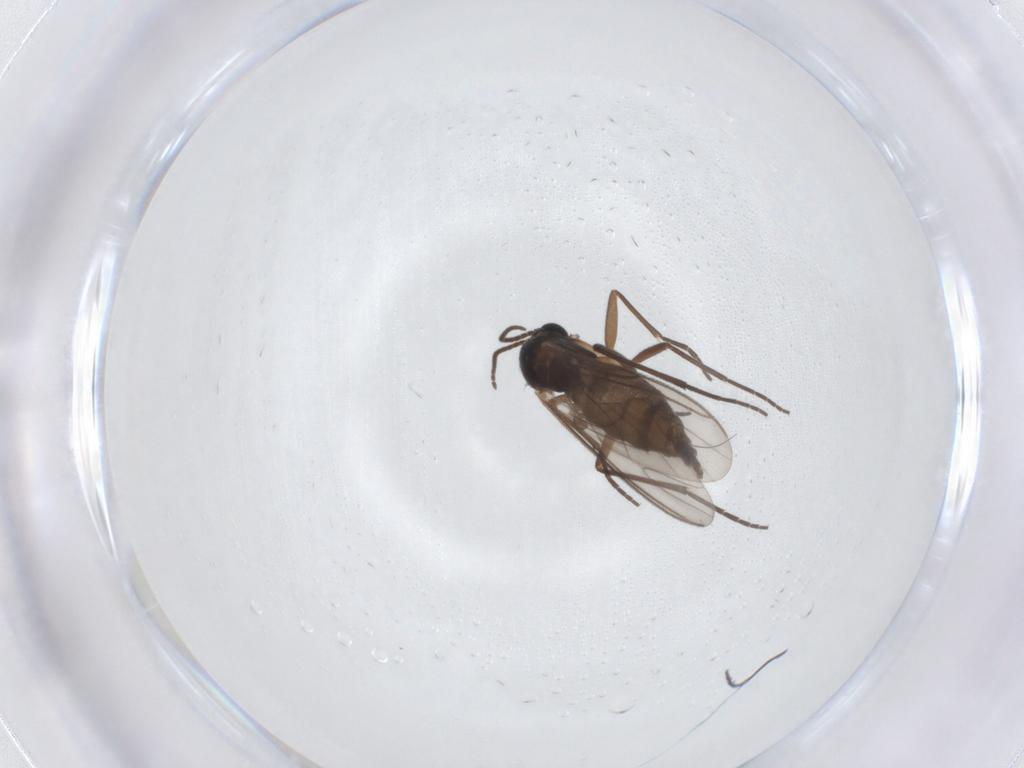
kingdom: Animalia
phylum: Arthropoda
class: Insecta
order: Diptera
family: Sciaridae
